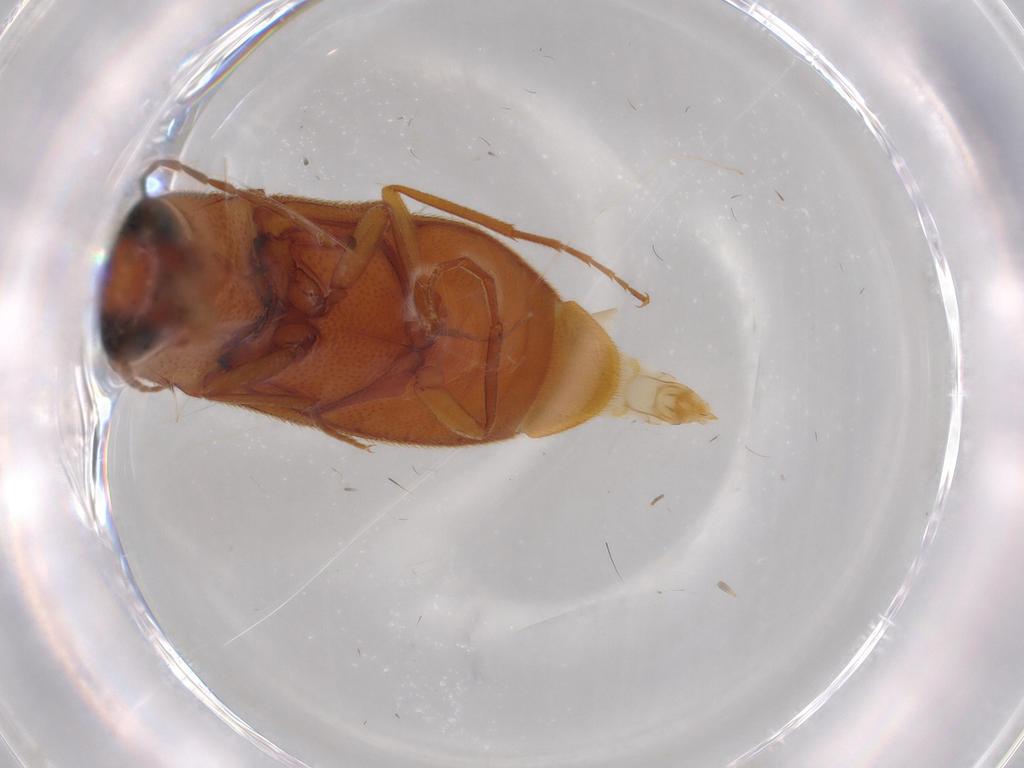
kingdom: Animalia
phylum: Arthropoda
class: Insecta
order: Coleoptera
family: Elateridae
